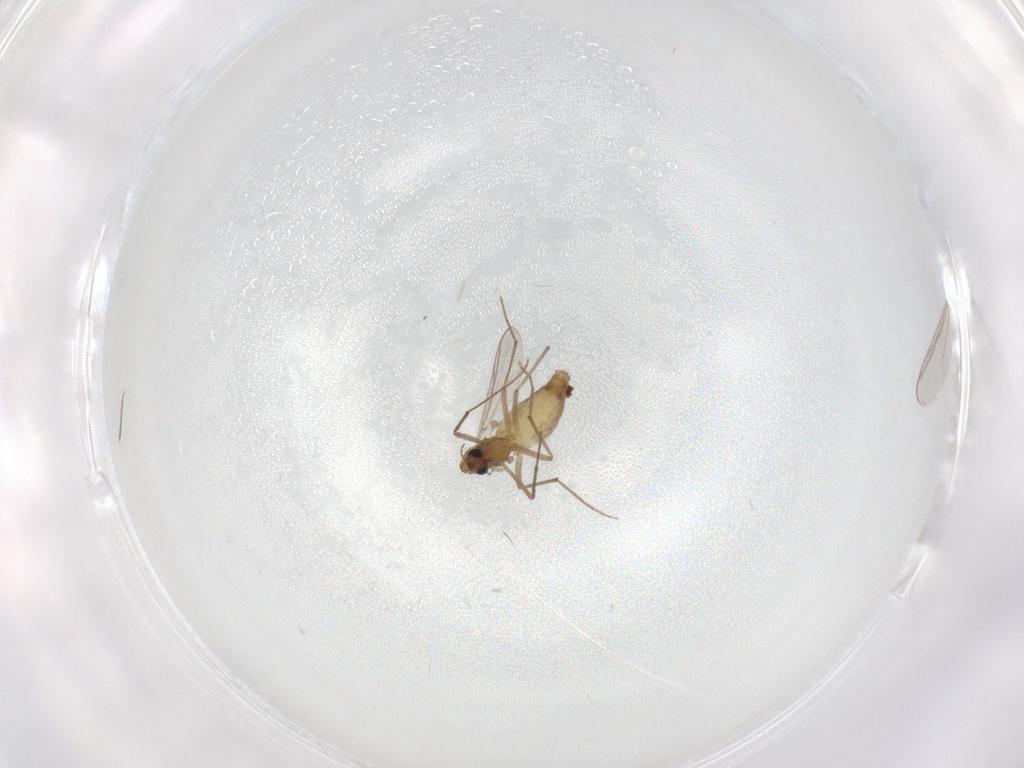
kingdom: Animalia
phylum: Arthropoda
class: Insecta
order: Diptera
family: Chironomidae
